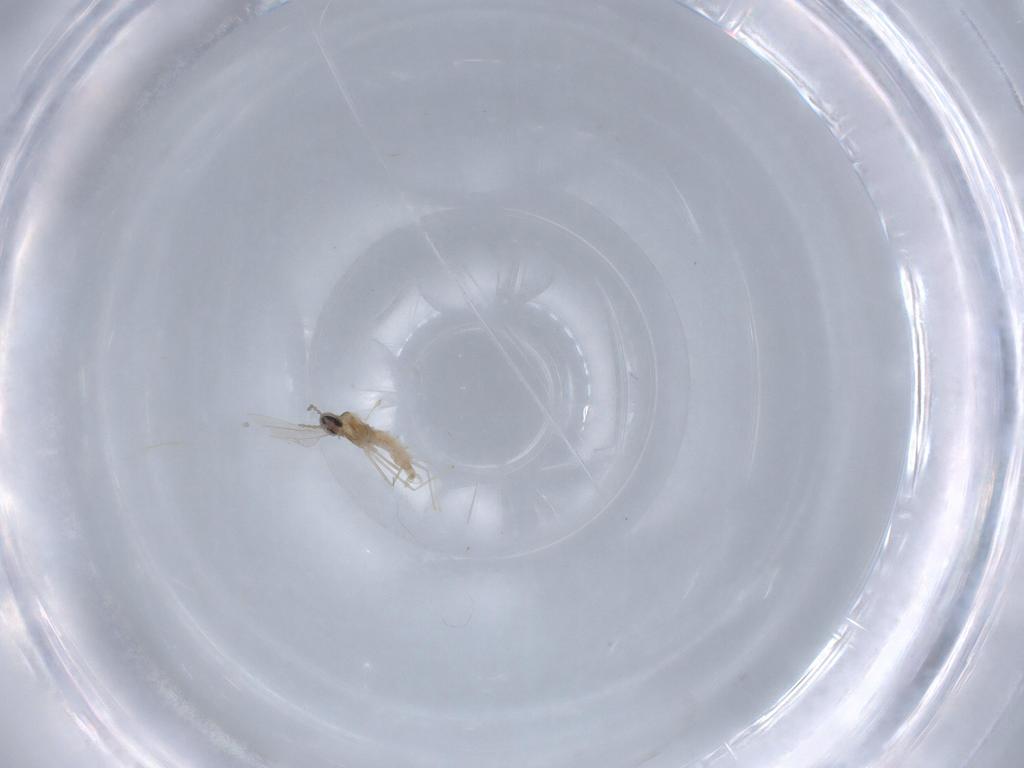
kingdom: Animalia
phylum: Arthropoda
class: Insecta
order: Diptera
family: Cecidomyiidae
